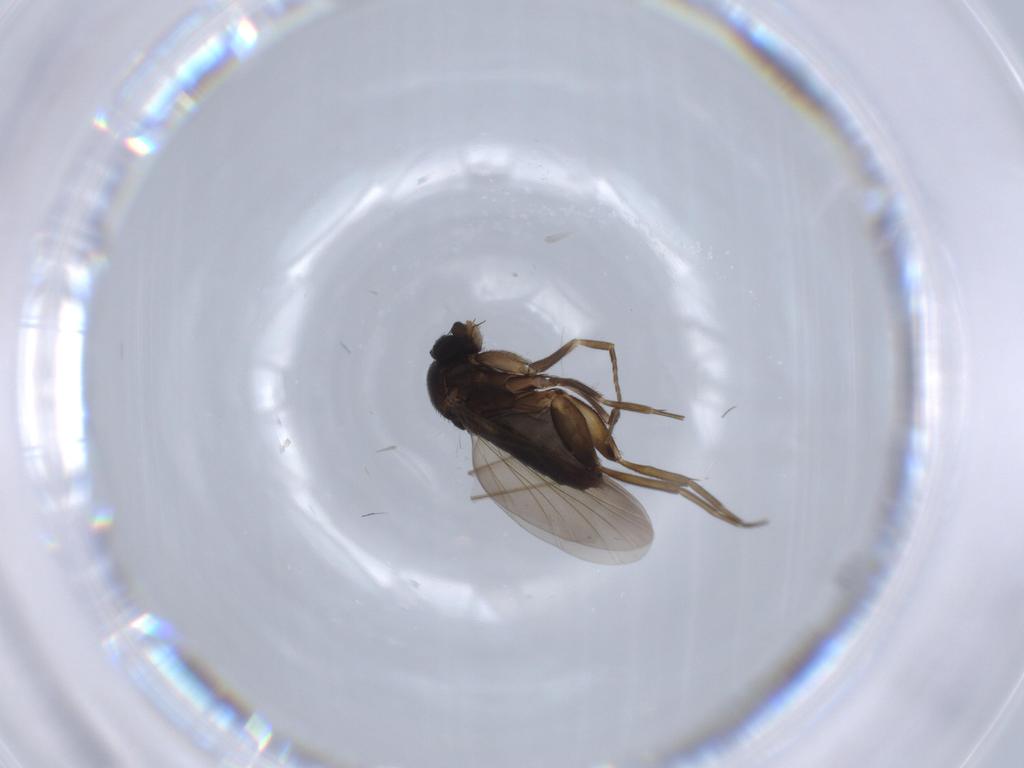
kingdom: Animalia
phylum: Arthropoda
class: Insecta
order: Diptera
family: Phoridae
